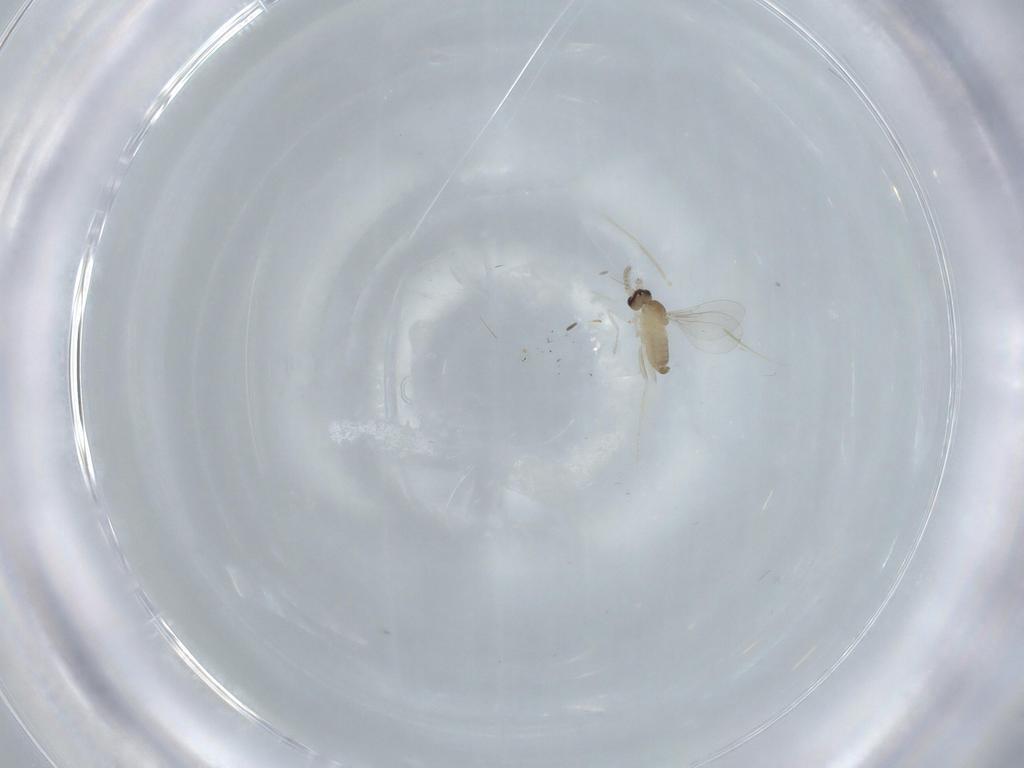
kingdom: Animalia
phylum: Arthropoda
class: Insecta
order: Diptera
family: Cecidomyiidae
